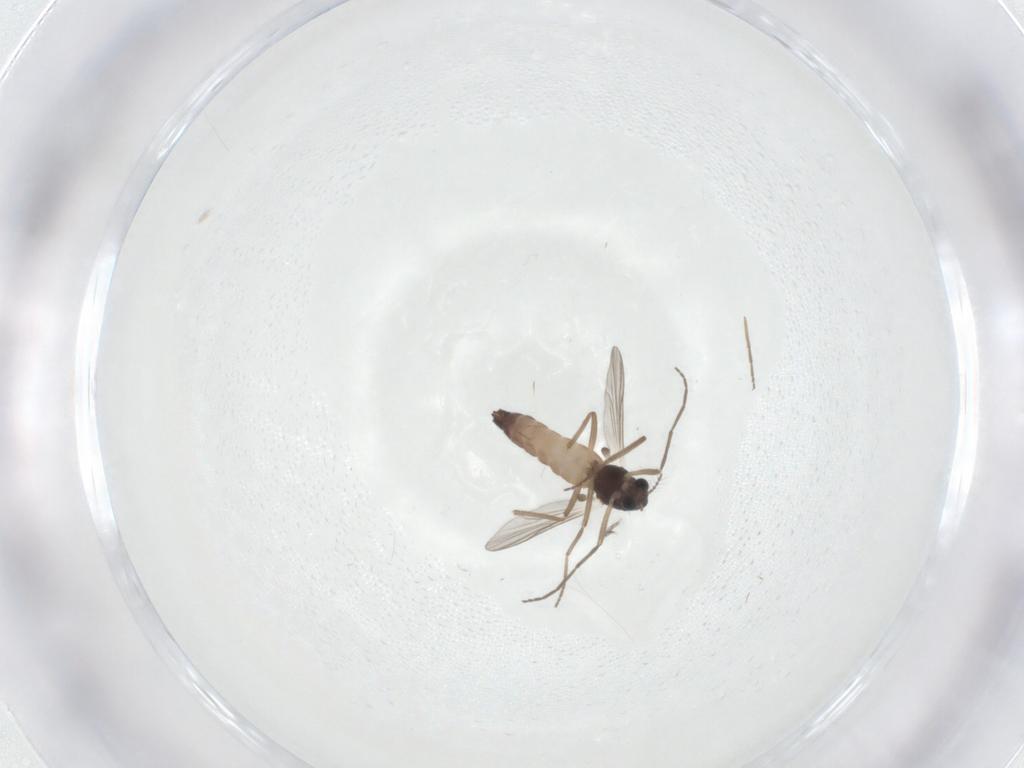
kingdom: Animalia
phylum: Arthropoda
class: Insecta
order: Diptera
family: Chironomidae
